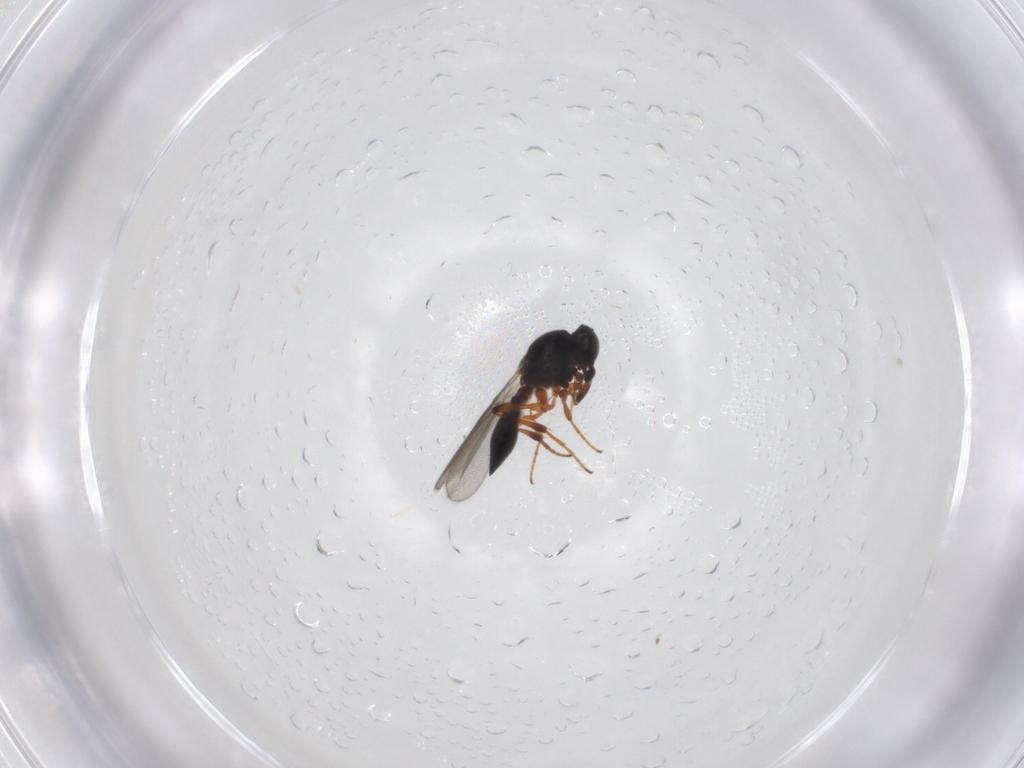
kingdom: Animalia
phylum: Arthropoda
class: Insecta
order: Hymenoptera
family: Platygastridae
